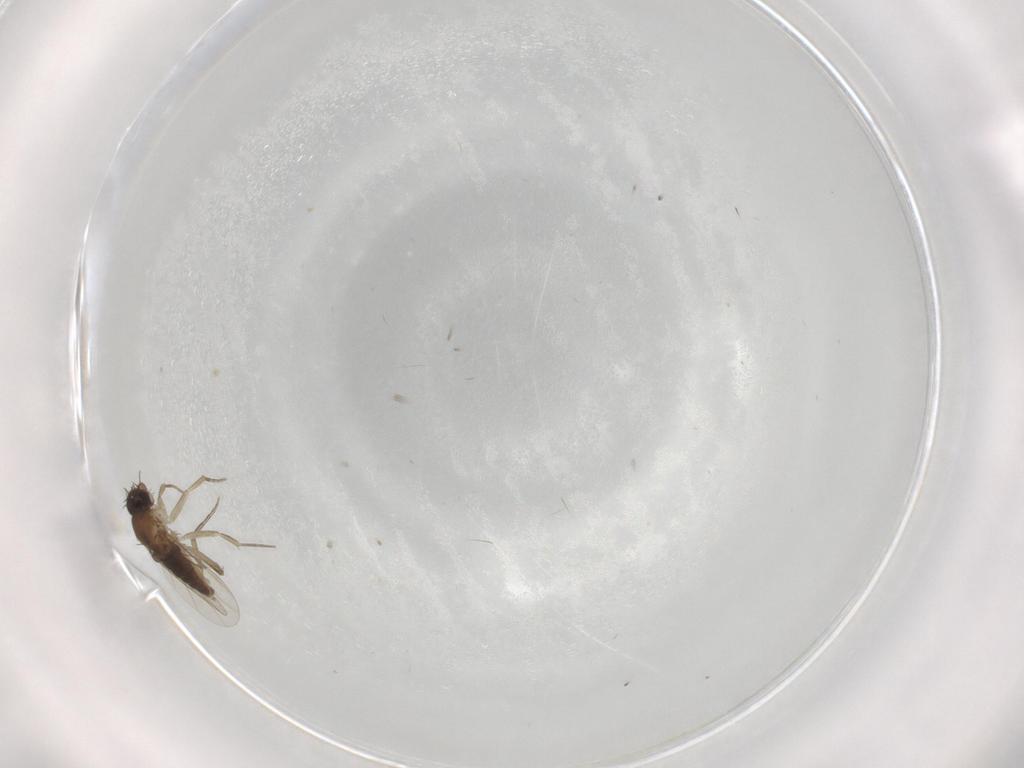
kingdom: Animalia
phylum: Arthropoda
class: Insecta
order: Diptera
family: Phoridae
